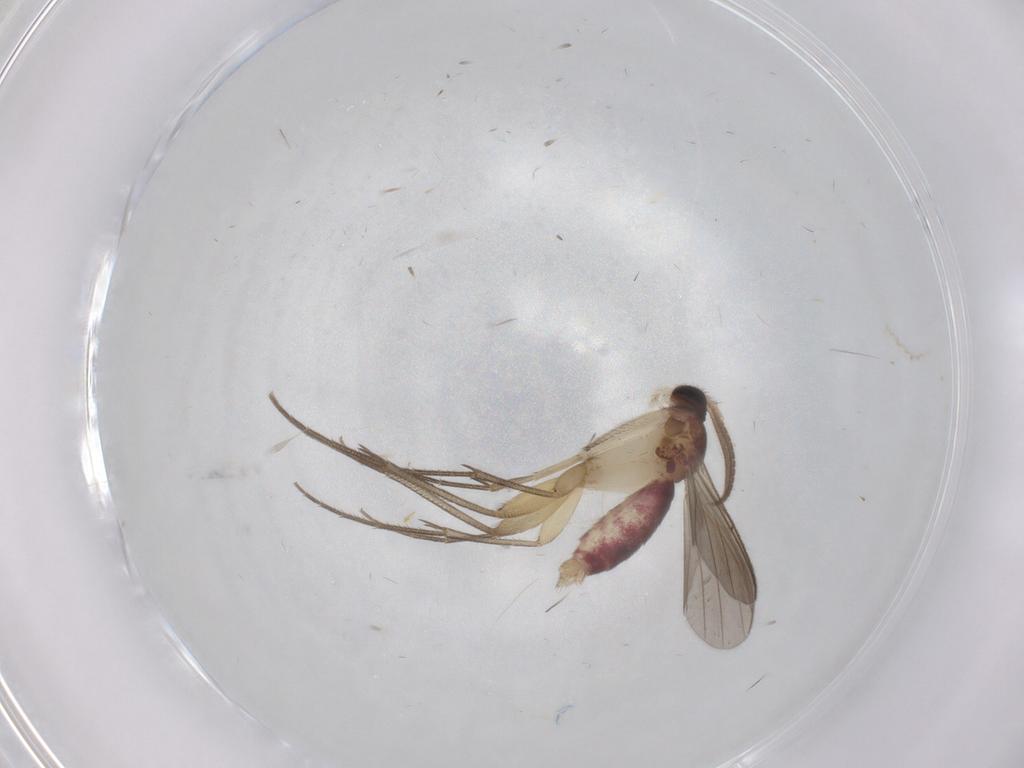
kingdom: Animalia
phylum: Arthropoda
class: Insecta
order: Diptera
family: Mycetophilidae
